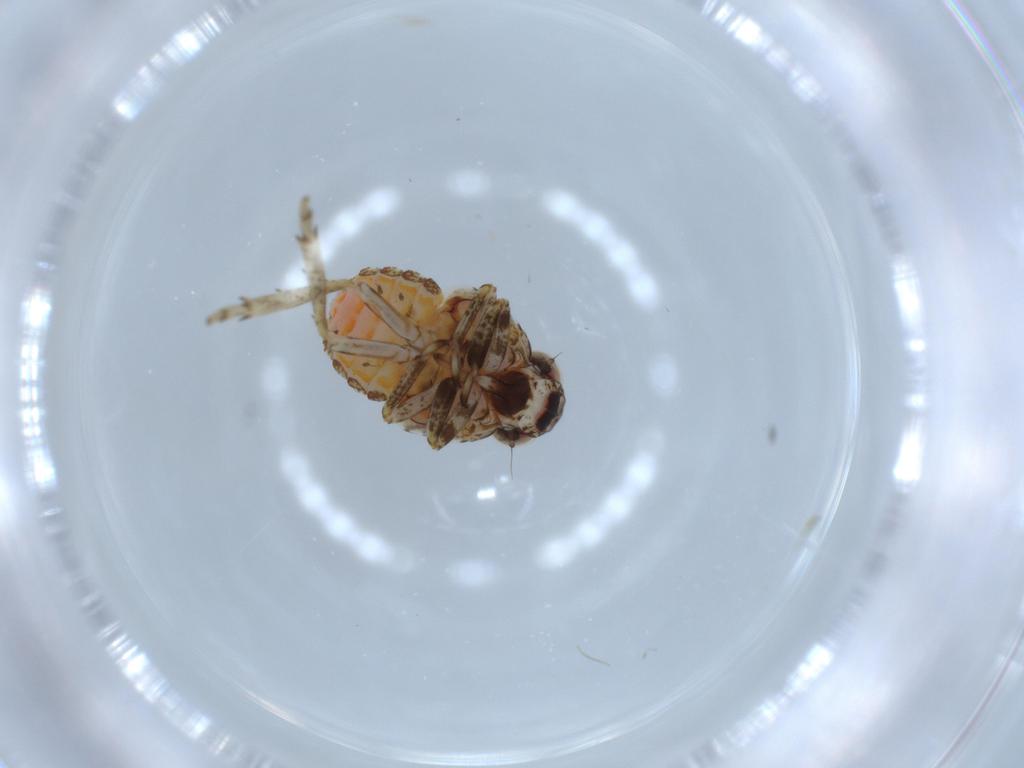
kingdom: Animalia
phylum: Arthropoda
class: Insecta
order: Hemiptera
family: Issidae
